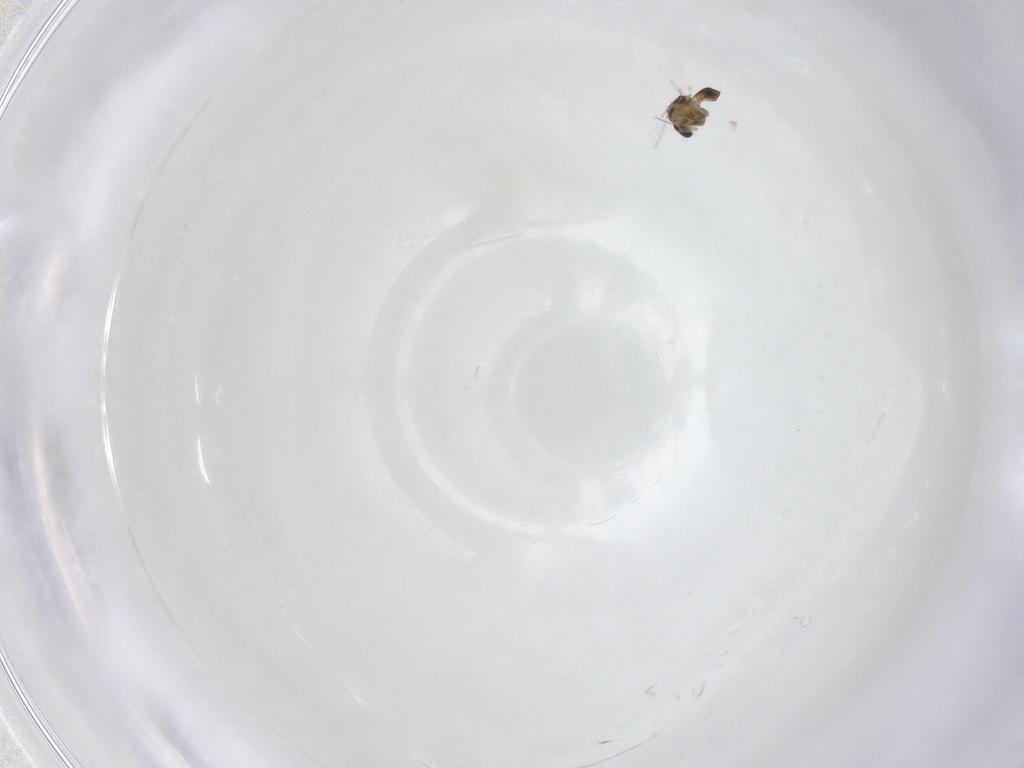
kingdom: Animalia
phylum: Arthropoda
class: Insecta
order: Diptera
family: Chironomidae
